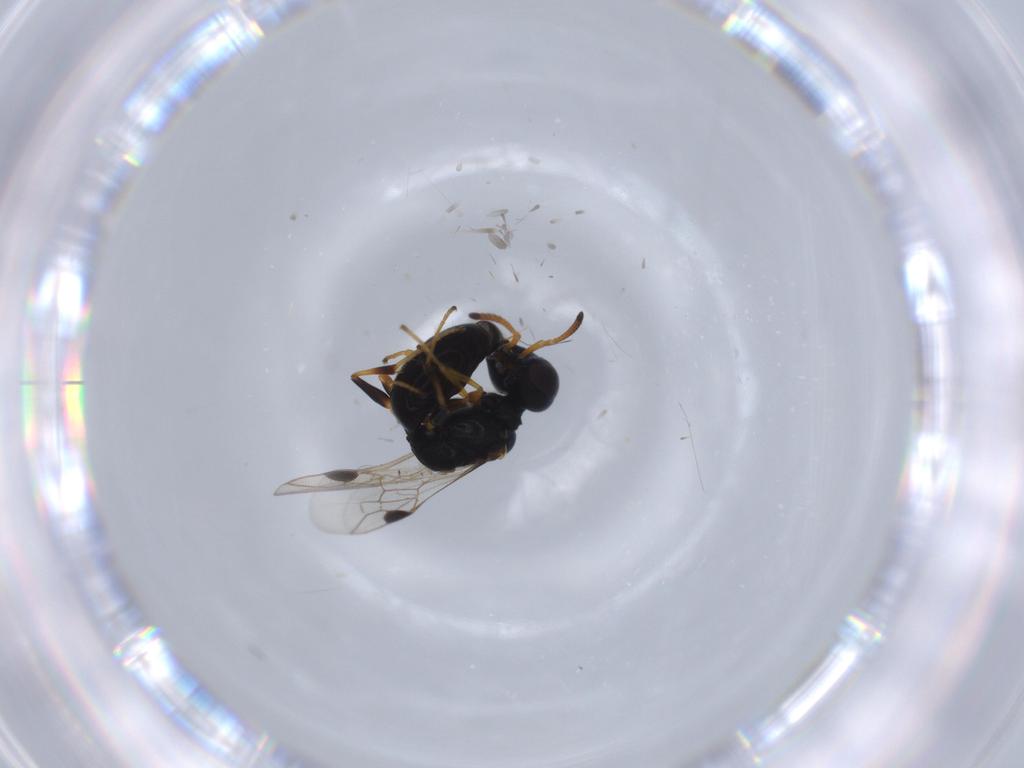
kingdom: Animalia
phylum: Arthropoda
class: Insecta
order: Hymenoptera
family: Pemphredonidae
